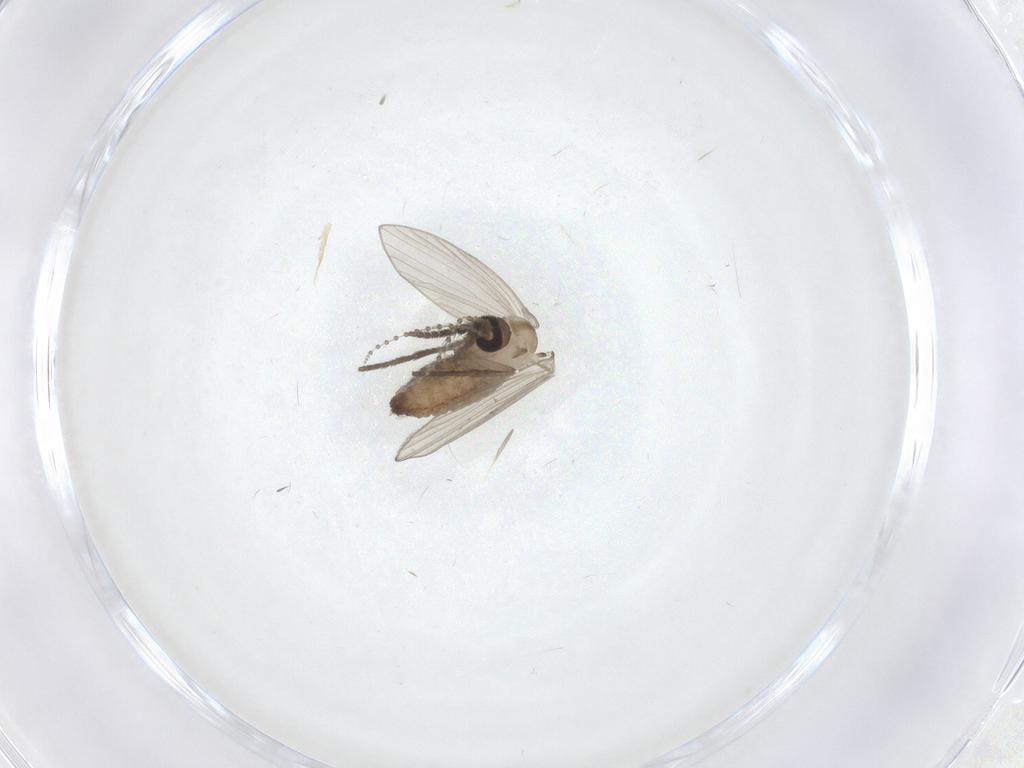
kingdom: Animalia
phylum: Arthropoda
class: Insecta
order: Diptera
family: Psychodidae
